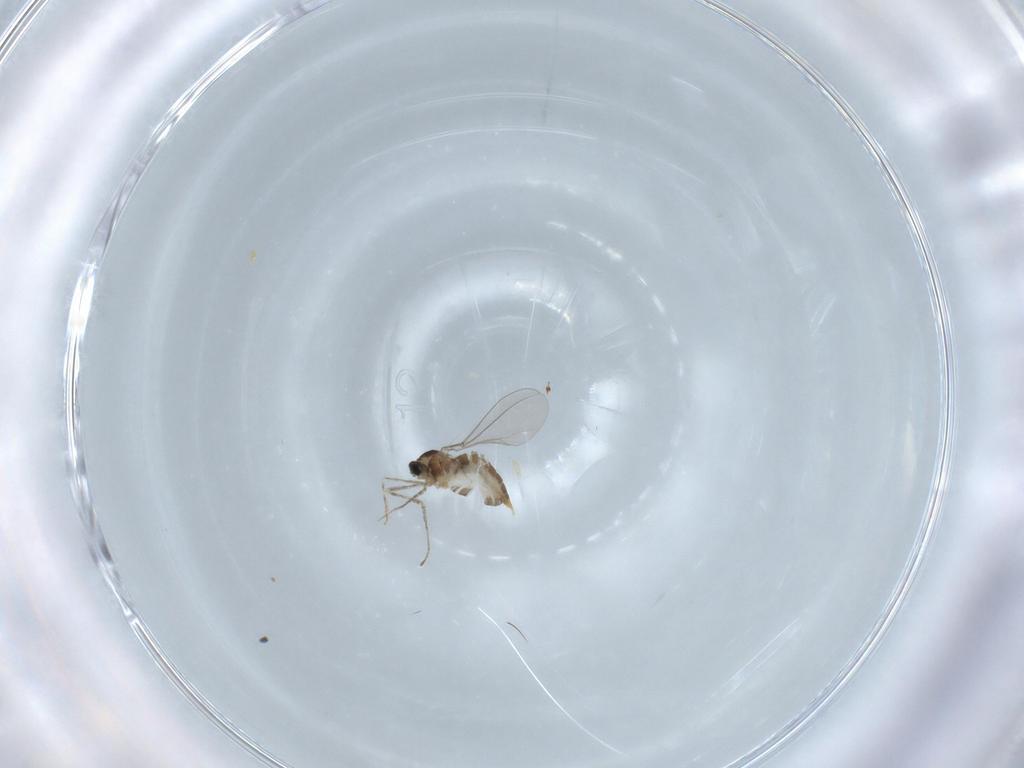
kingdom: Animalia
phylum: Arthropoda
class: Insecta
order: Diptera
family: Cecidomyiidae
